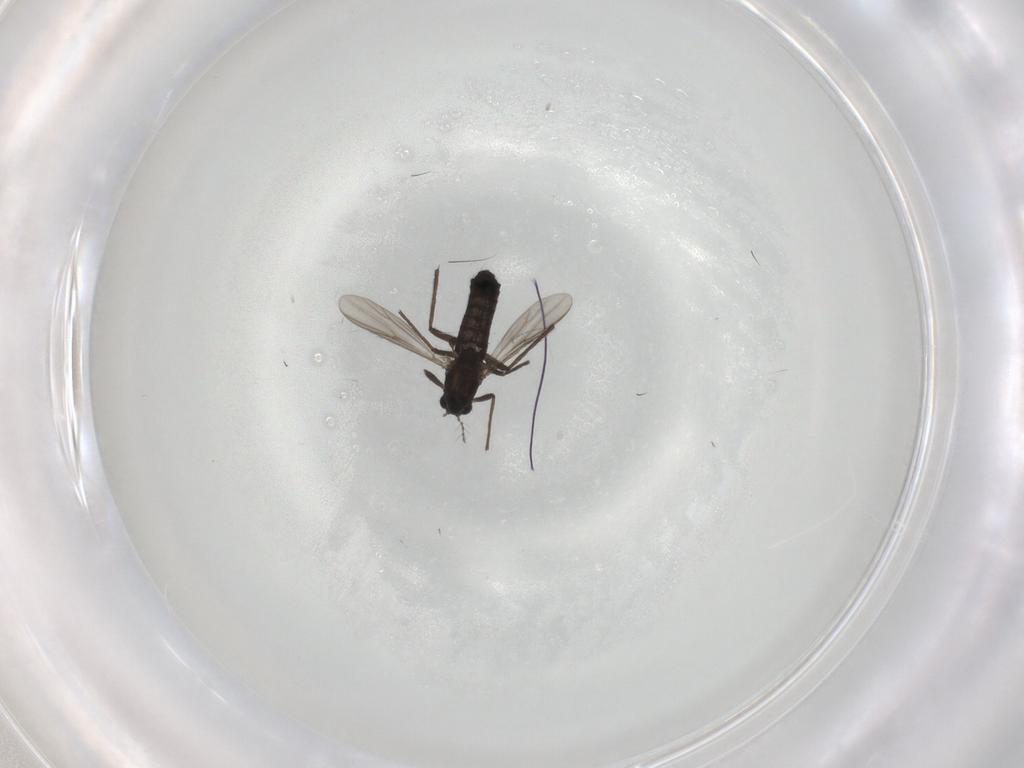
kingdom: Animalia
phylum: Arthropoda
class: Insecta
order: Diptera
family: Chironomidae
